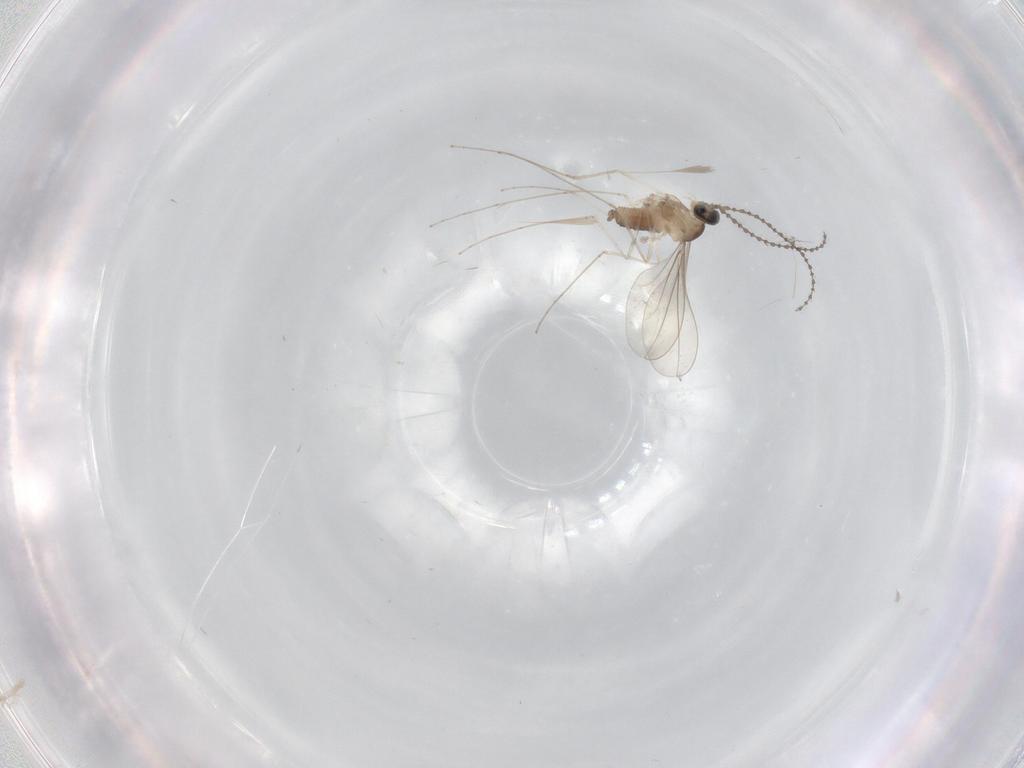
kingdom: Animalia
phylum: Arthropoda
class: Insecta
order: Diptera
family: Cecidomyiidae
